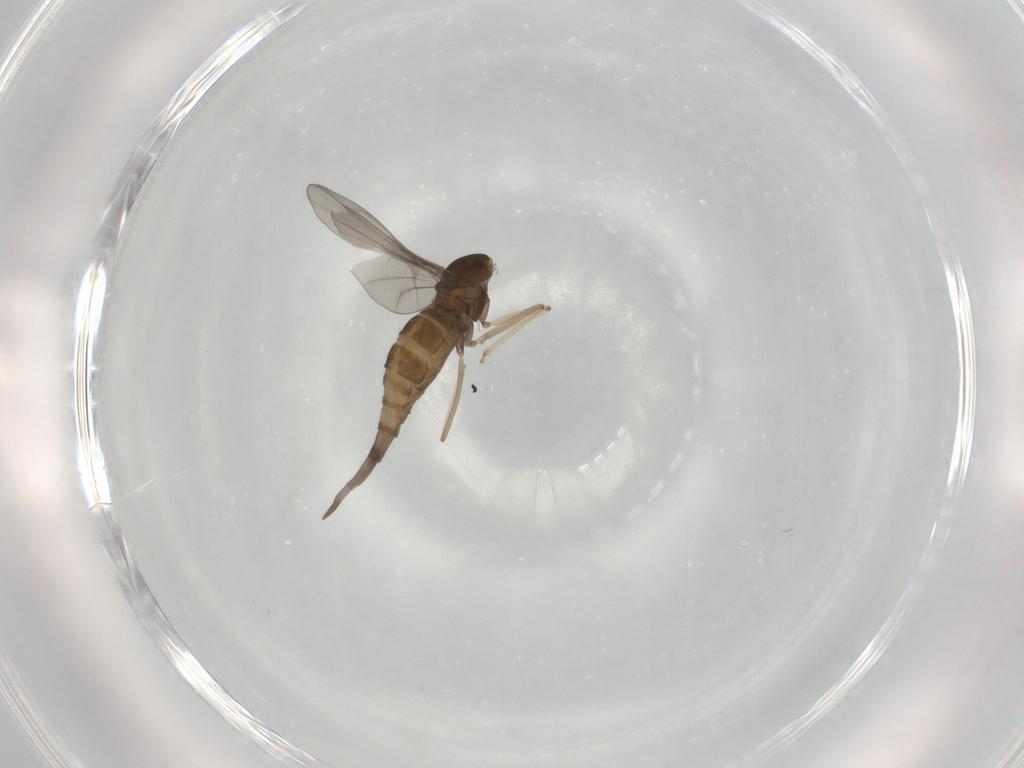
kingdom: Animalia
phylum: Arthropoda
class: Insecta
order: Diptera
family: Cecidomyiidae
